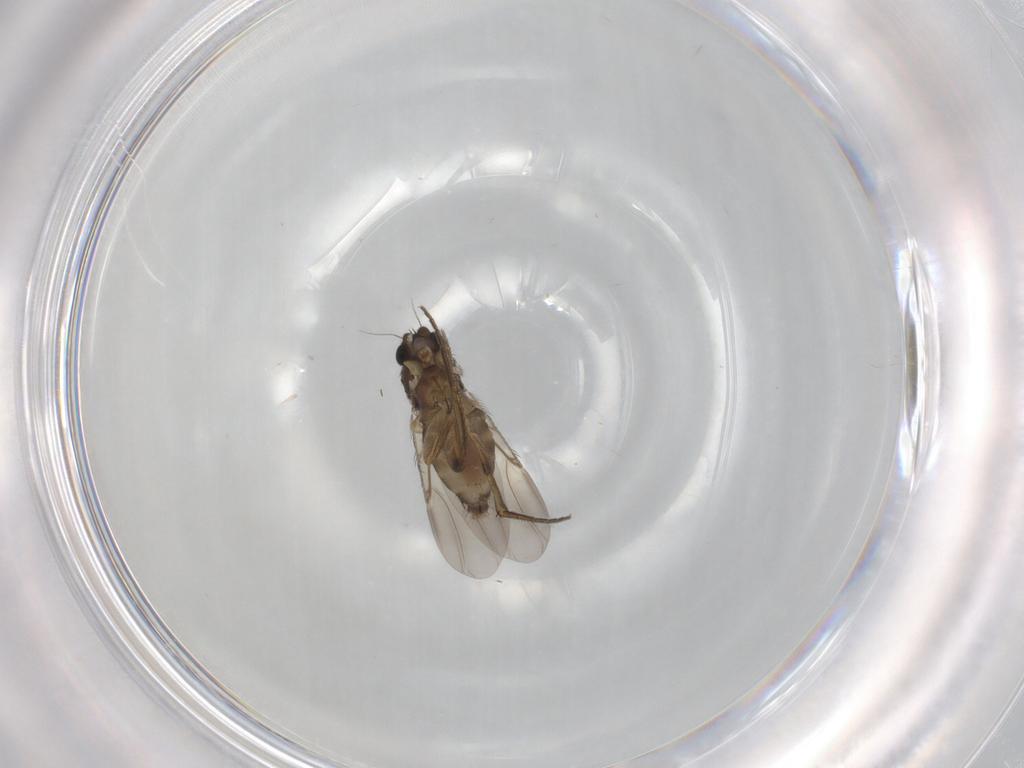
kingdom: Animalia
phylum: Arthropoda
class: Insecta
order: Diptera
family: Phoridae
